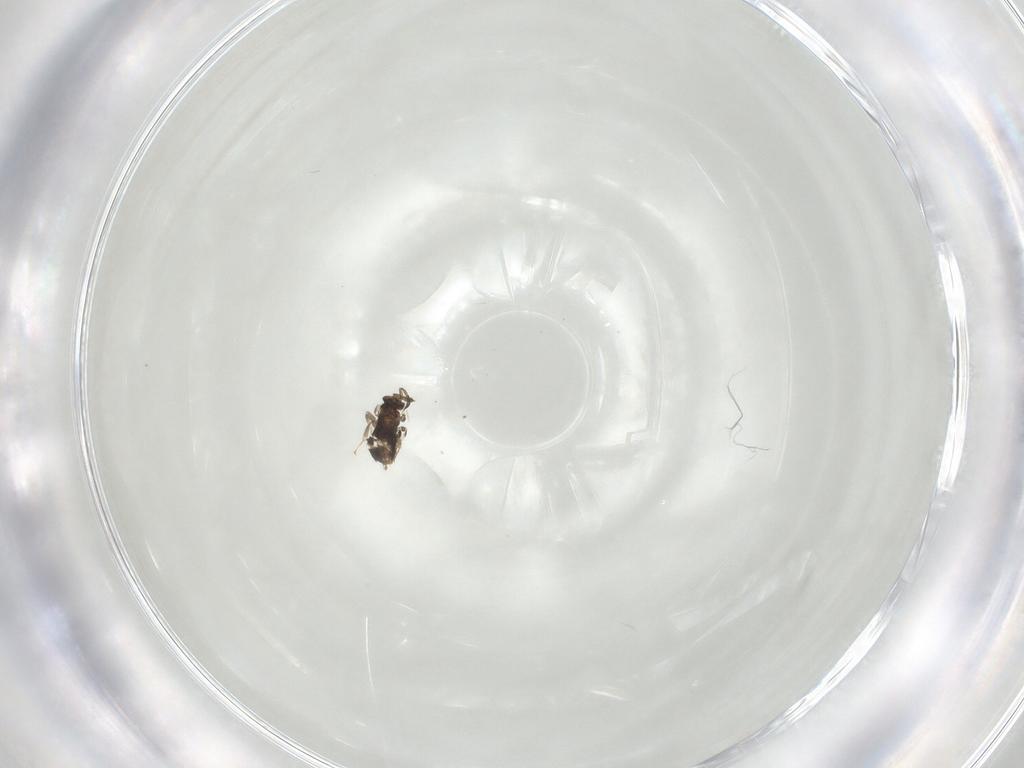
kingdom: Animalia
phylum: Arthropoda
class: Insecta
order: Hymenoptera
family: Aphelinidae
